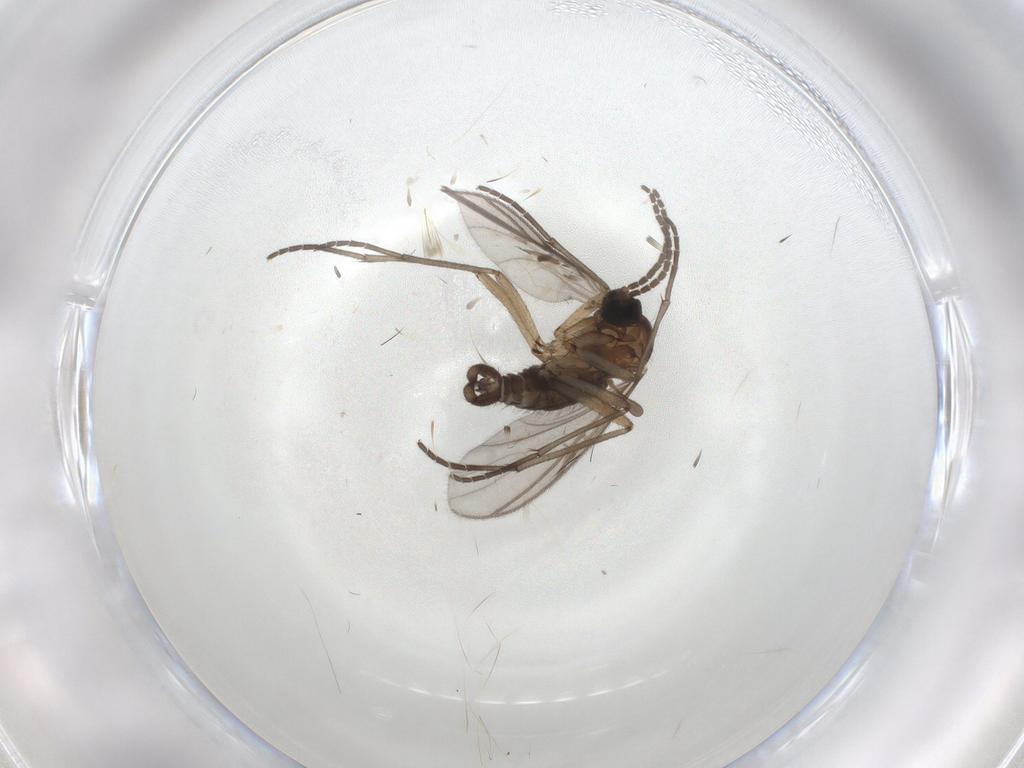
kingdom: Animalia
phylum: Arthropoda
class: Insecta
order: Diptera
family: Sciaridae
